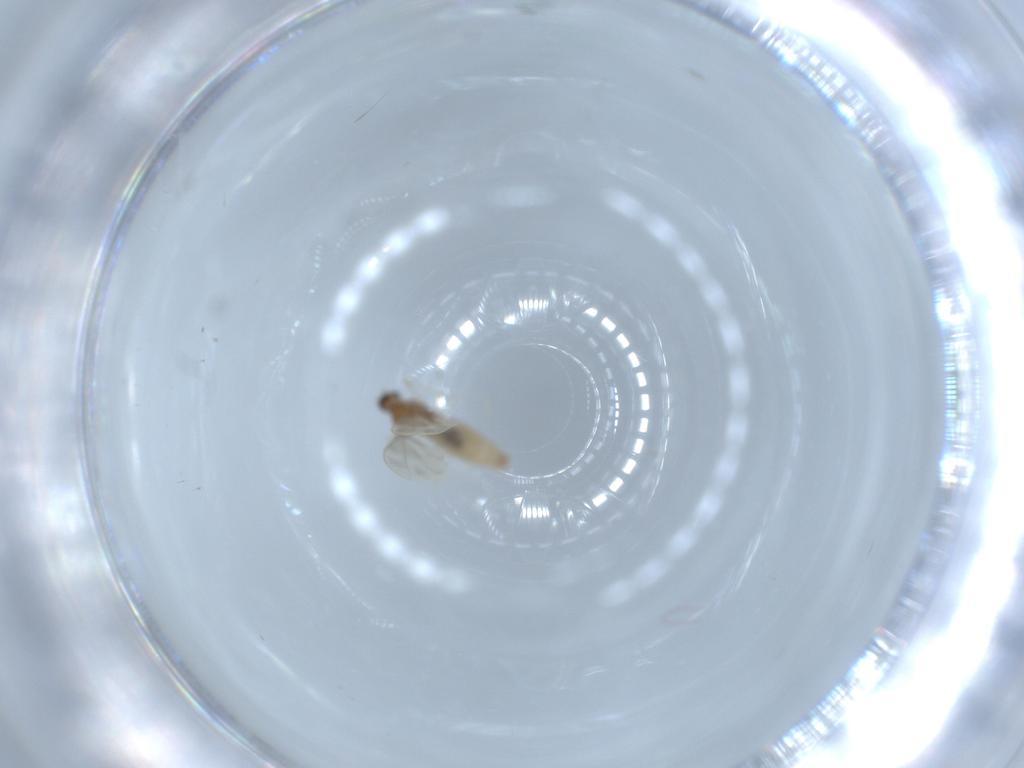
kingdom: Animalia
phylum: Arthropoda
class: Insecta
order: Diptera
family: Cecidomyiidae
